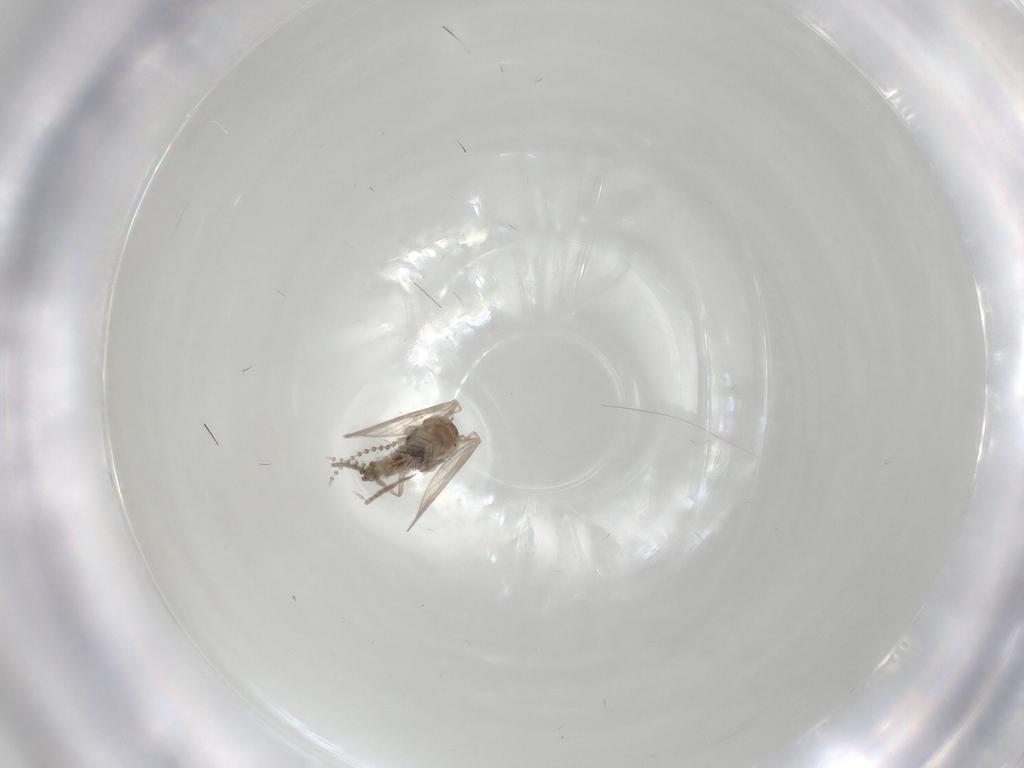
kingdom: Animalia
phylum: Arthropoda
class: Insecta
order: Diptera
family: Psychodidae
